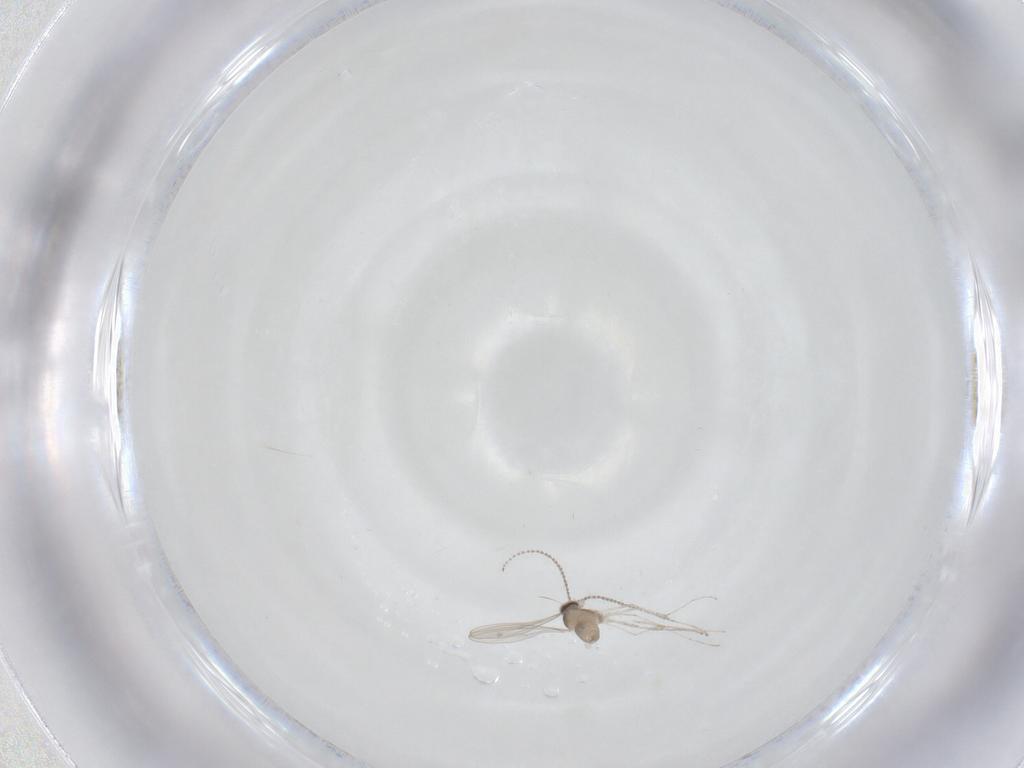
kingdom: Animalia
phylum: Arthropoda
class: Insecta
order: Diptera
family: Cecidomyiidae
